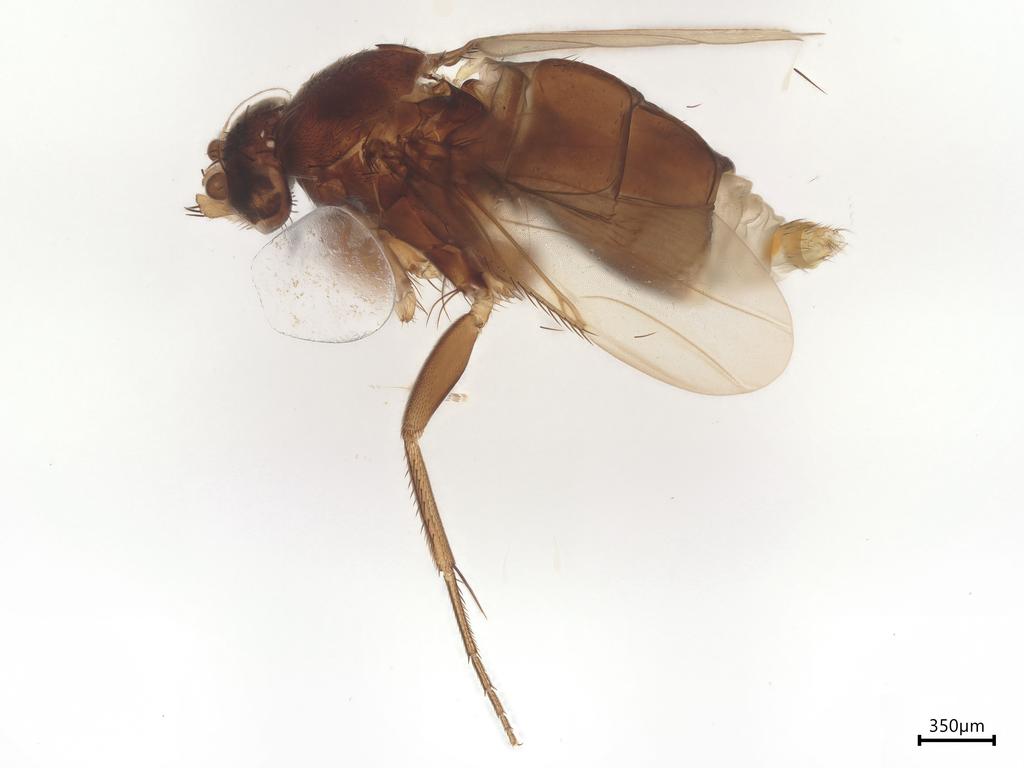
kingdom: Animalia
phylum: Arthropoda
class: Insecta
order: Diptera
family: Phoridae
